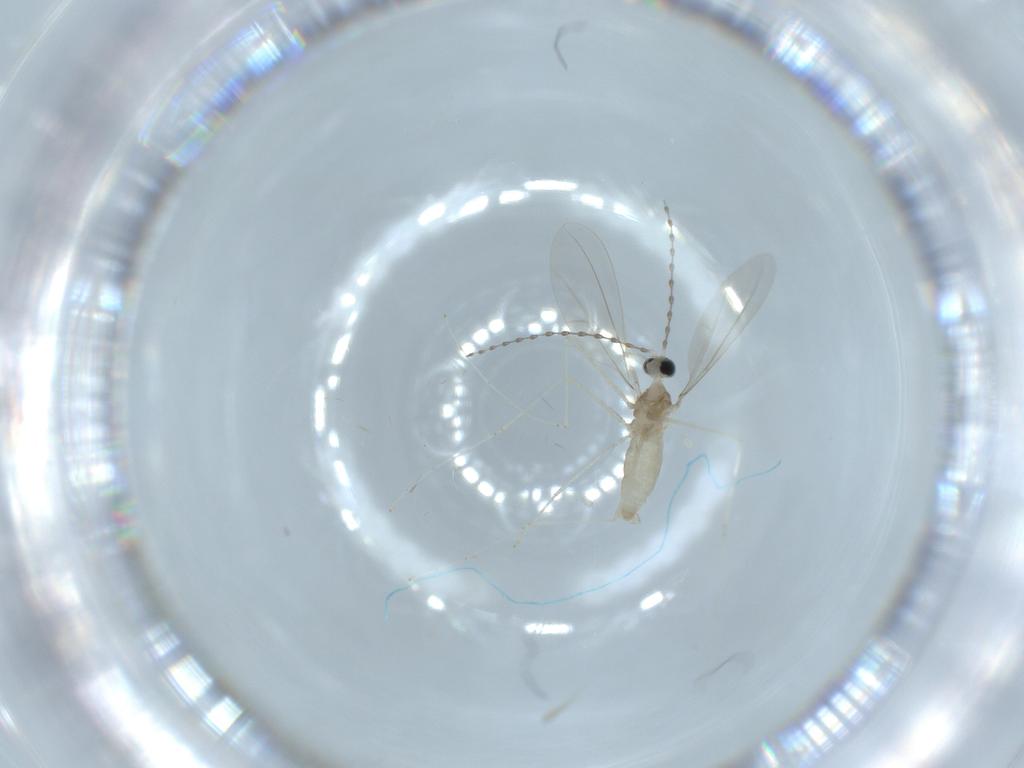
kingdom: Animalia
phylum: Arthropoda
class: Insecta
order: Diptera
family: Cecidomyiidae
